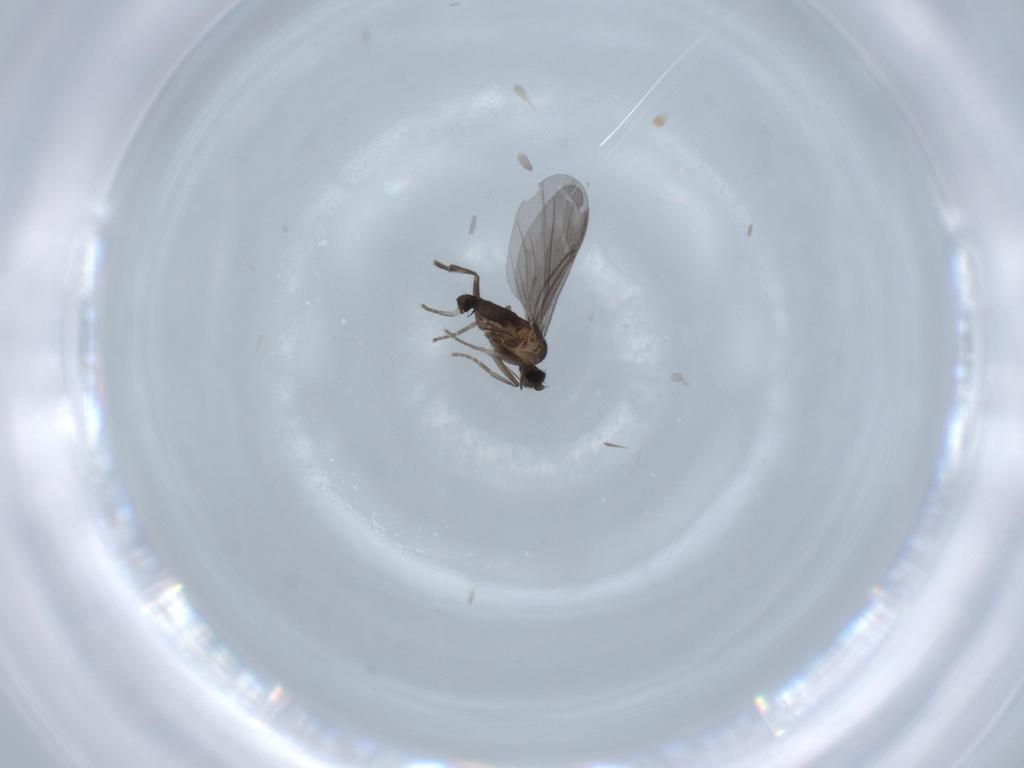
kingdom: Animalia
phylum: Arthropoda
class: Insecta
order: Diptera
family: Phoridae
